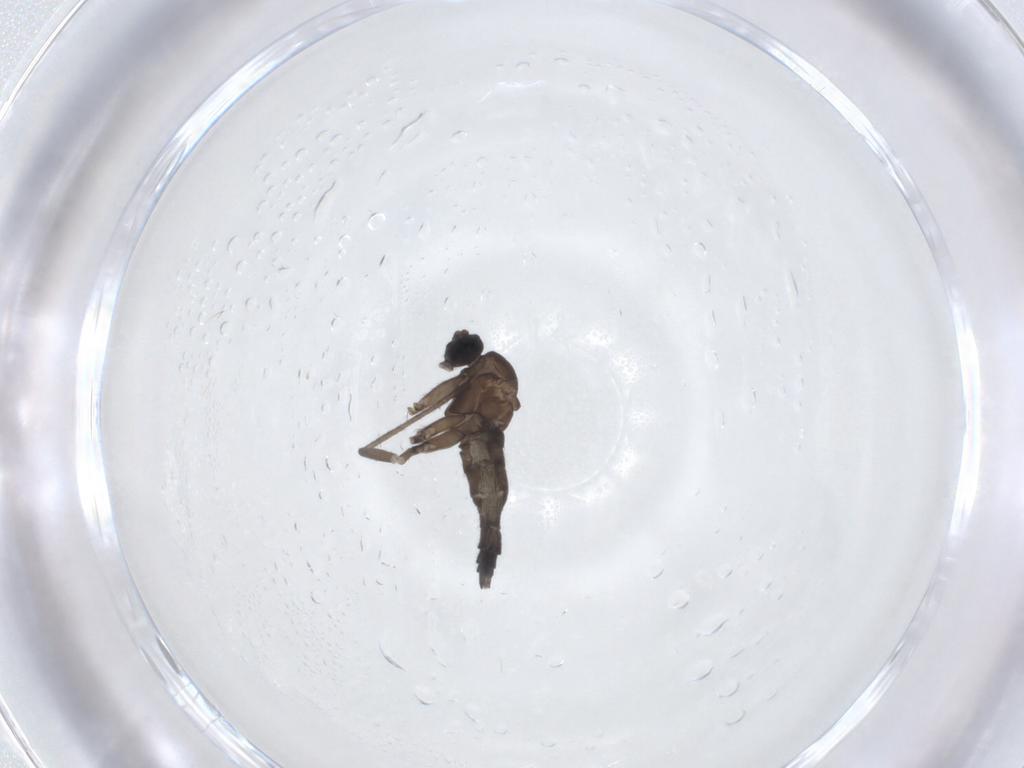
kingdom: Animalia
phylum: Arthropoda
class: Insecta
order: Diptera
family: Sciaridae
